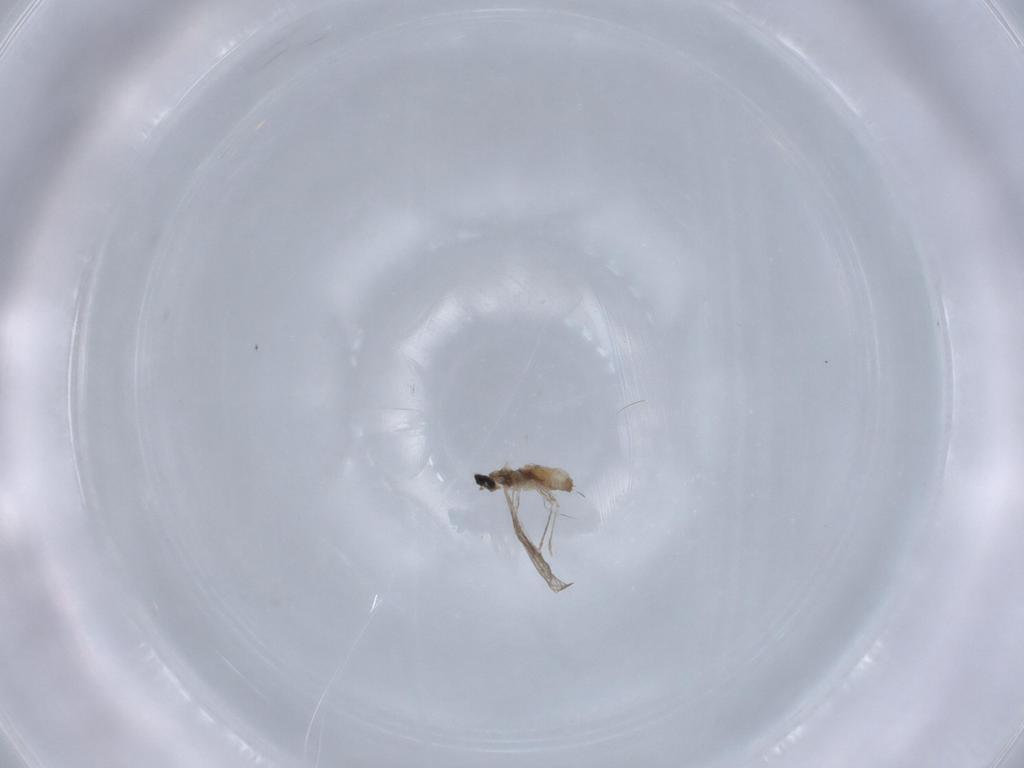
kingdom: Animalia
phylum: Arthropoda
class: Insecta
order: Diptera
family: Cecidomyiidae
